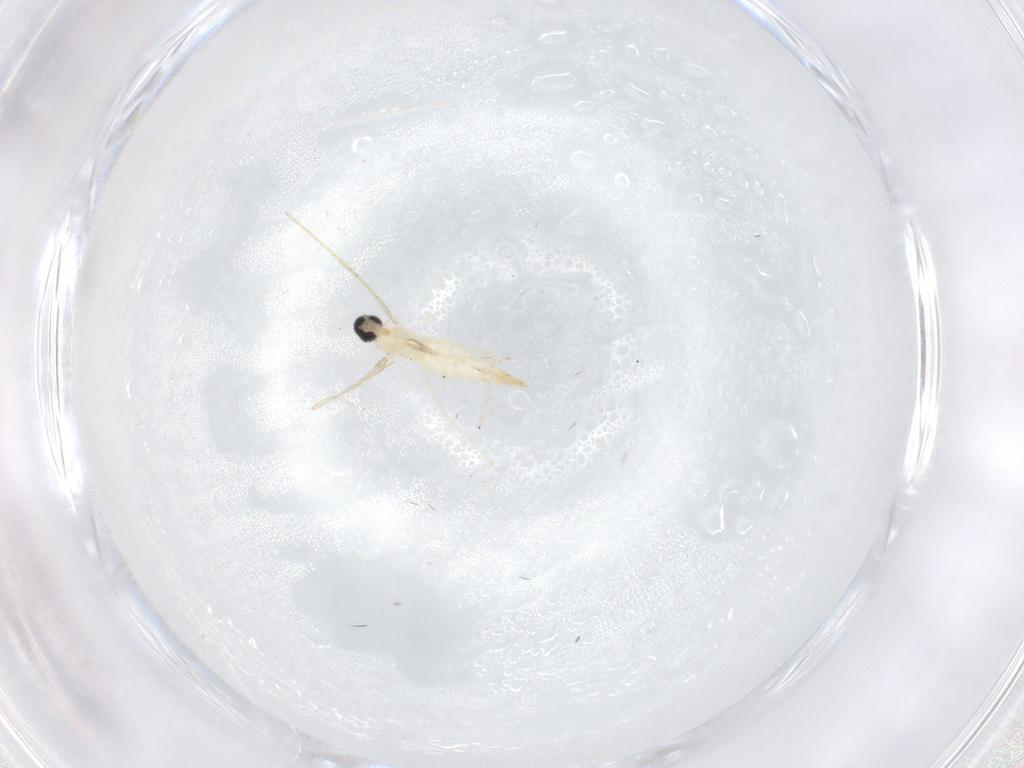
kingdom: Animalia
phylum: Arthropoda
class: Insecta
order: Diptera
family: Cecidomyiidae
